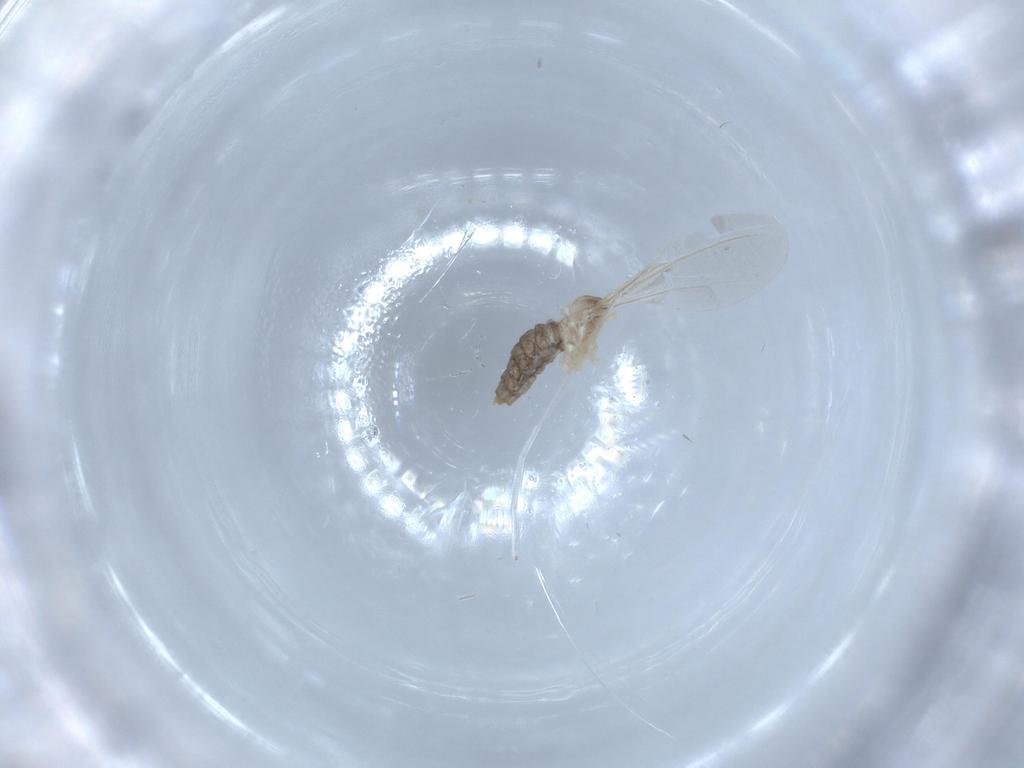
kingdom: Animalia
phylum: Arthropoda
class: Insecta
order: Diptera
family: Cecidomyiidae
